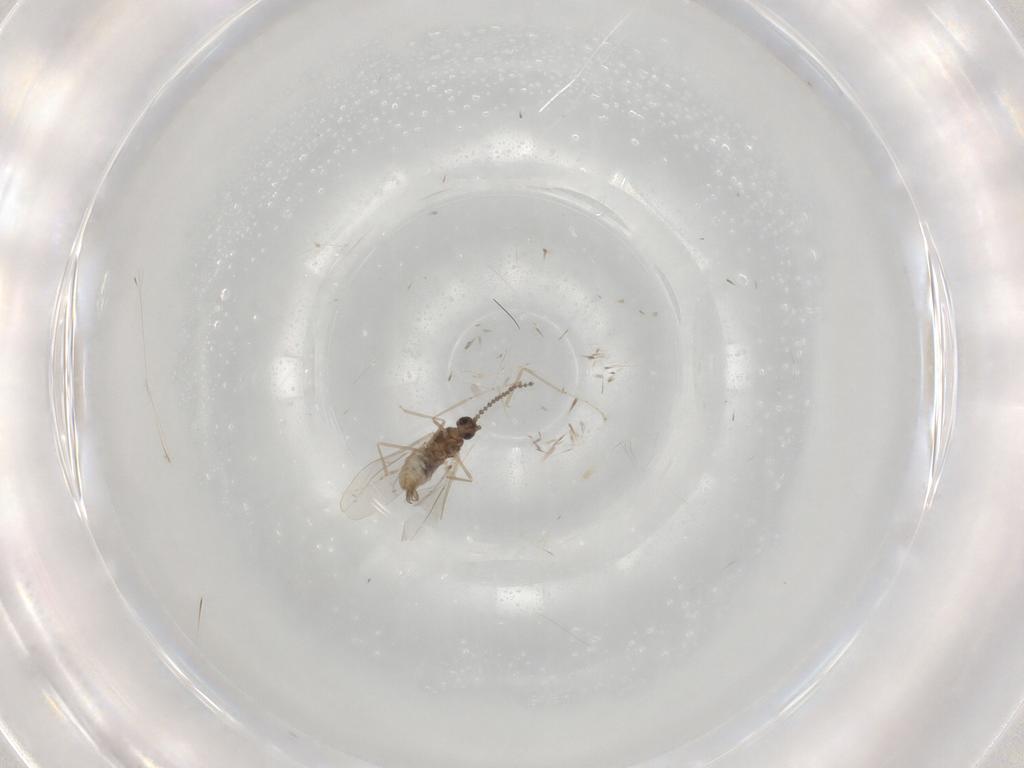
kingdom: Animalia
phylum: Arthropoda
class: Insecta
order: Diptera
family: Cecidomyiidae
